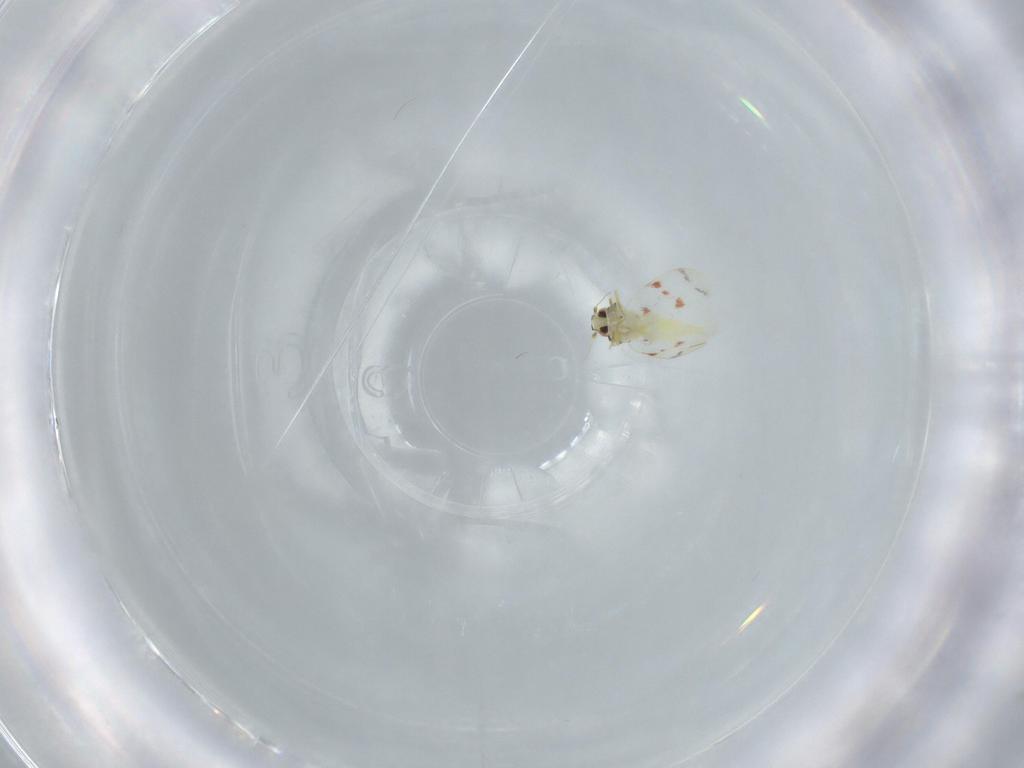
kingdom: Animalia
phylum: Arthropoda
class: Insecta
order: Hemiptera
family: Aleyrodidae
